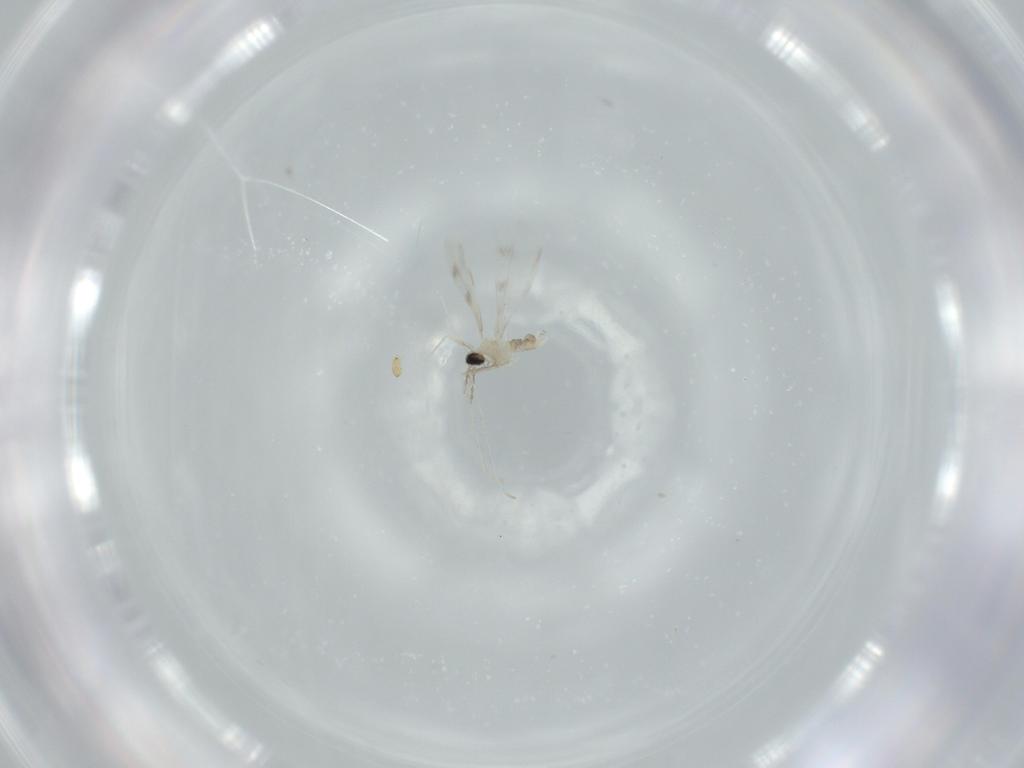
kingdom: Animalia
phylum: Arthropoda
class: Insecta
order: Diptera
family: Cecidomyiidae
